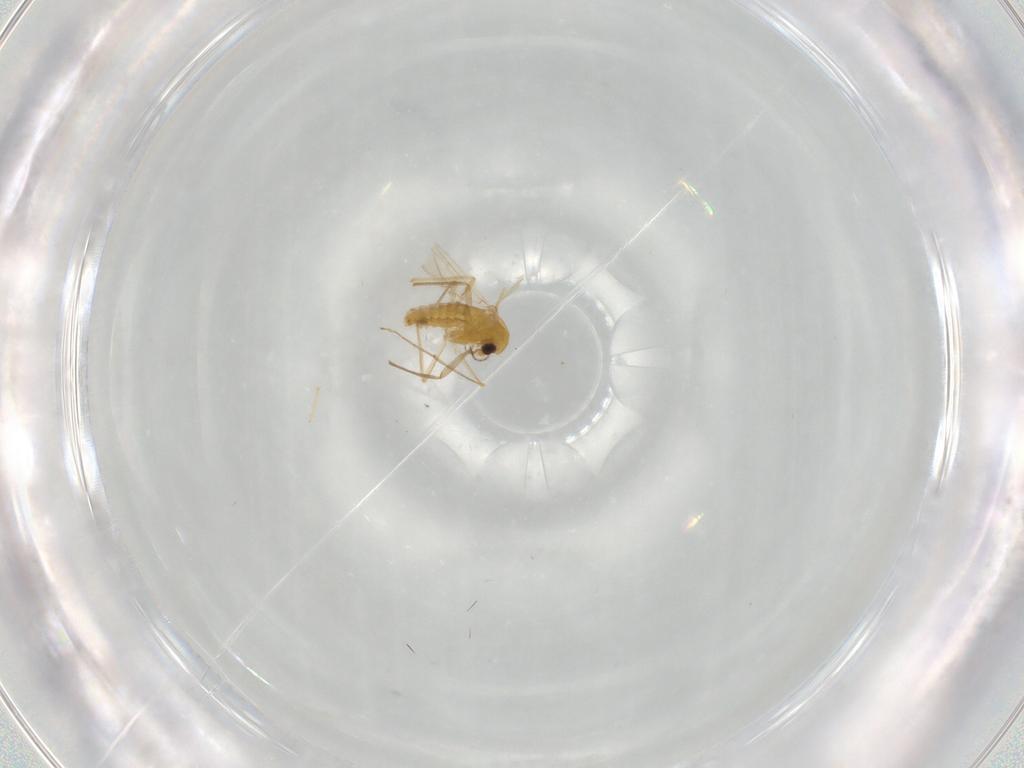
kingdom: Animalia
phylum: Arthropoda
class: Insecta
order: Diptera
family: Chironomidae
